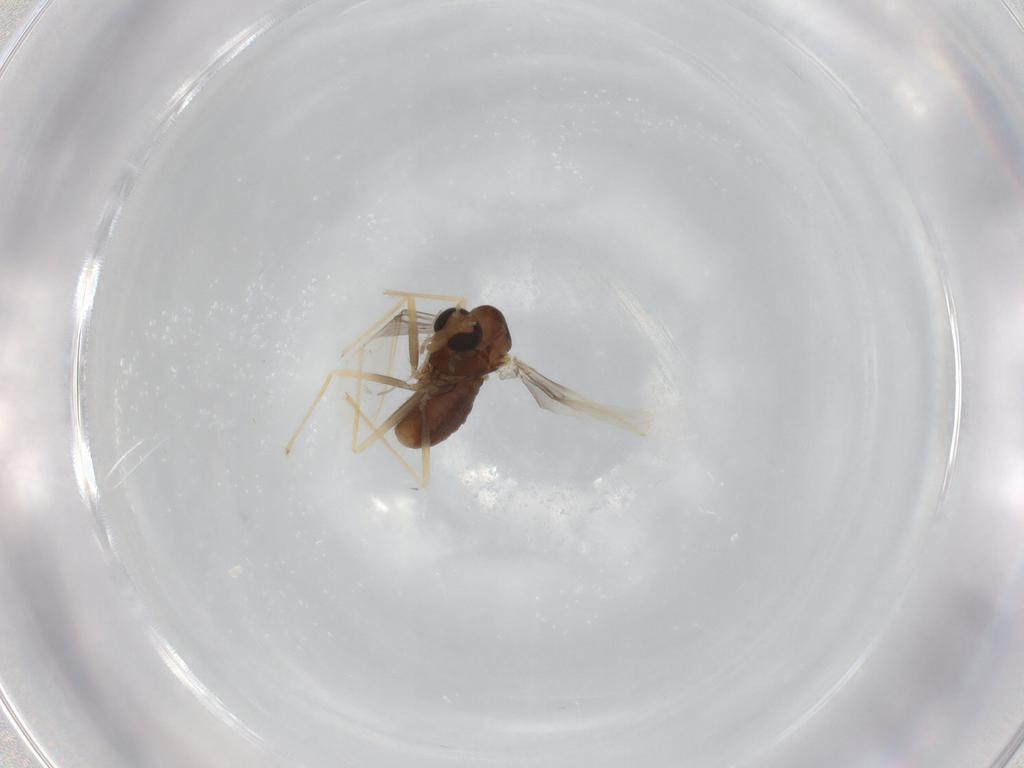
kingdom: Animalia
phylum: Arthropoda
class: Insecta
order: Diptera
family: Chironomidae
